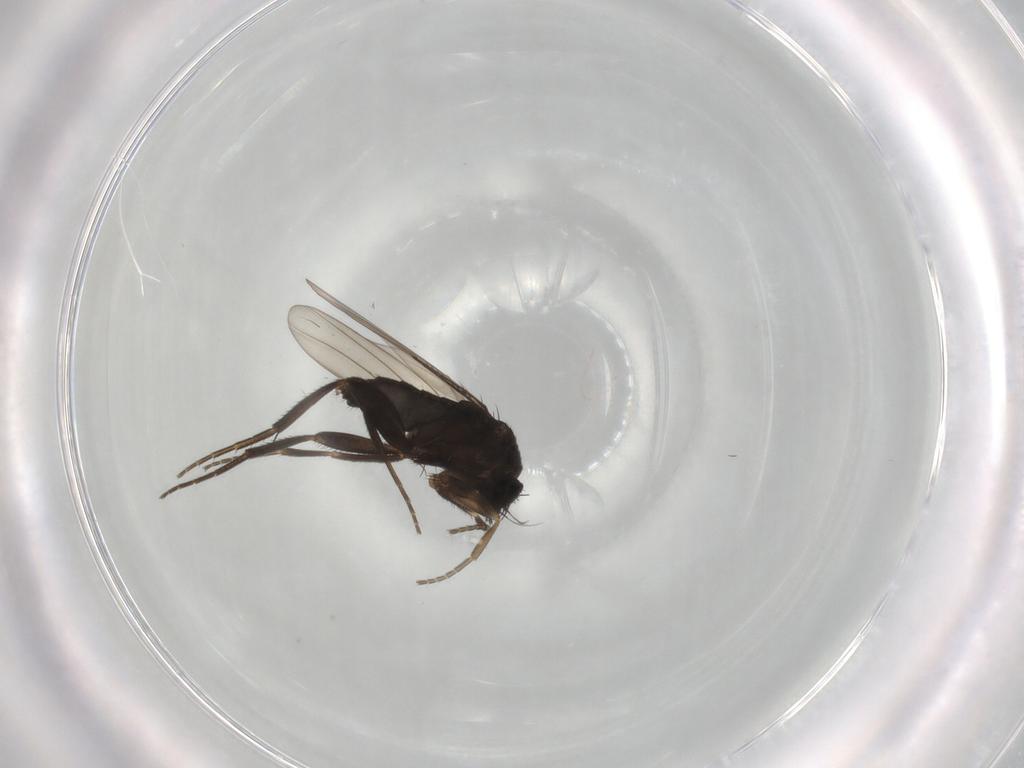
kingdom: Animalia
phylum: Arthropoda
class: Insecta
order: Diptera
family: Phoridae
